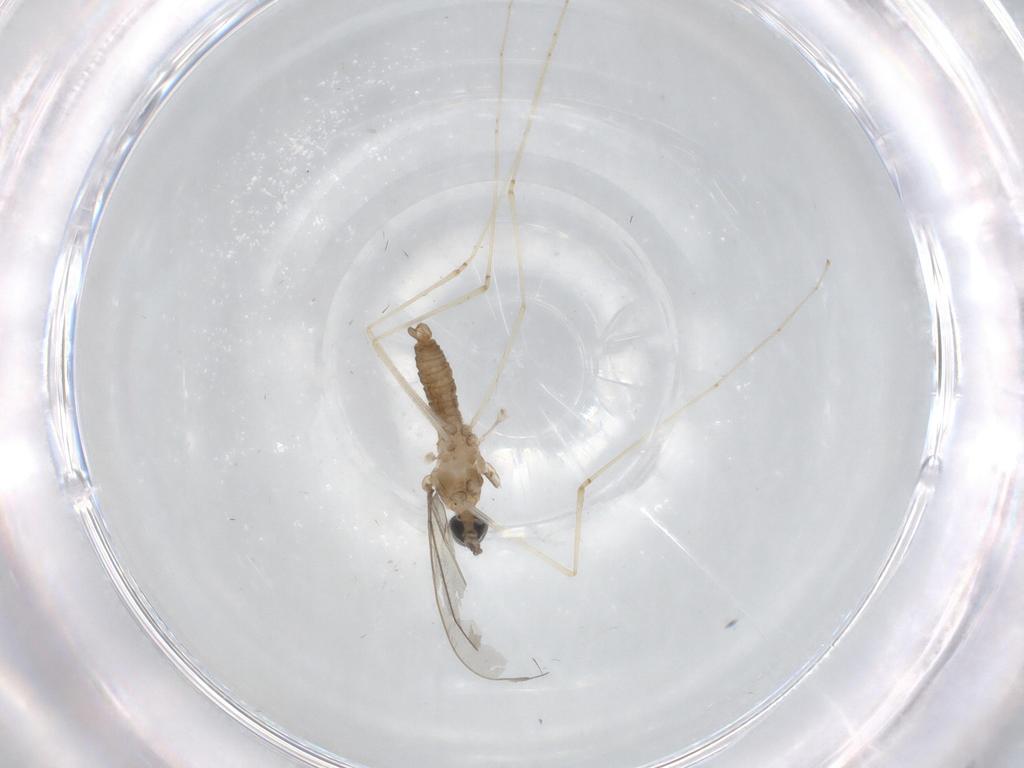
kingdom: Animalia
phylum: Arthropoda
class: Insecta
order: Diptera
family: Cecidomyiidae
